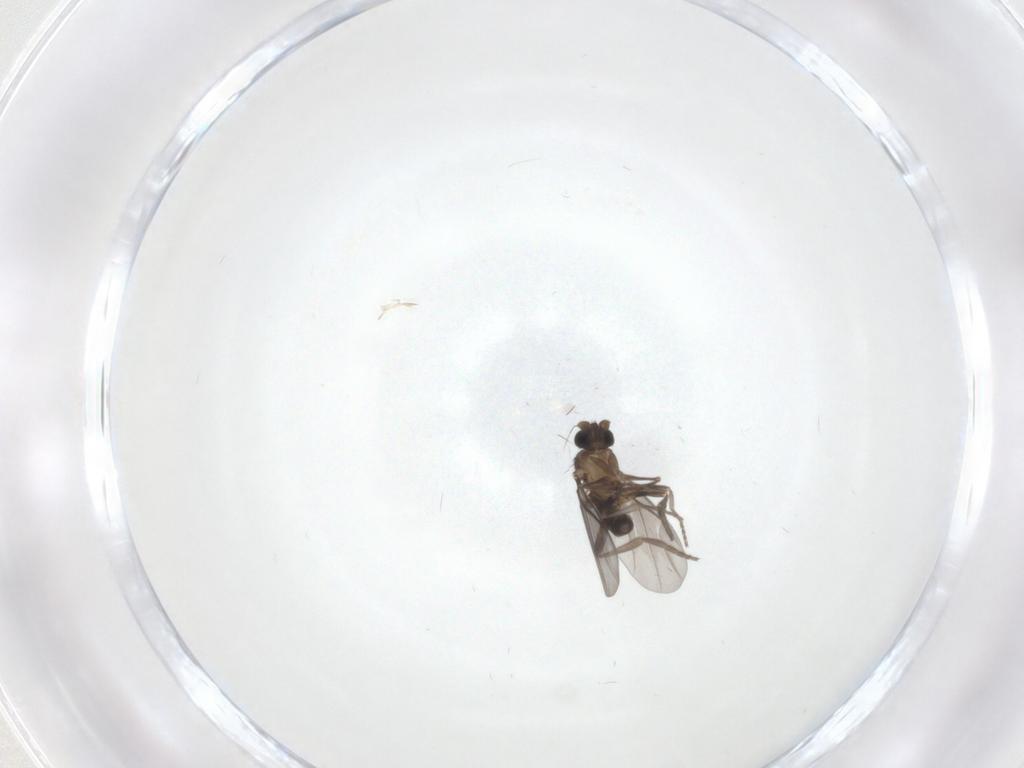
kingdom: Animalia
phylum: Arthropoda
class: Insecta
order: Diptera
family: Phoridae
